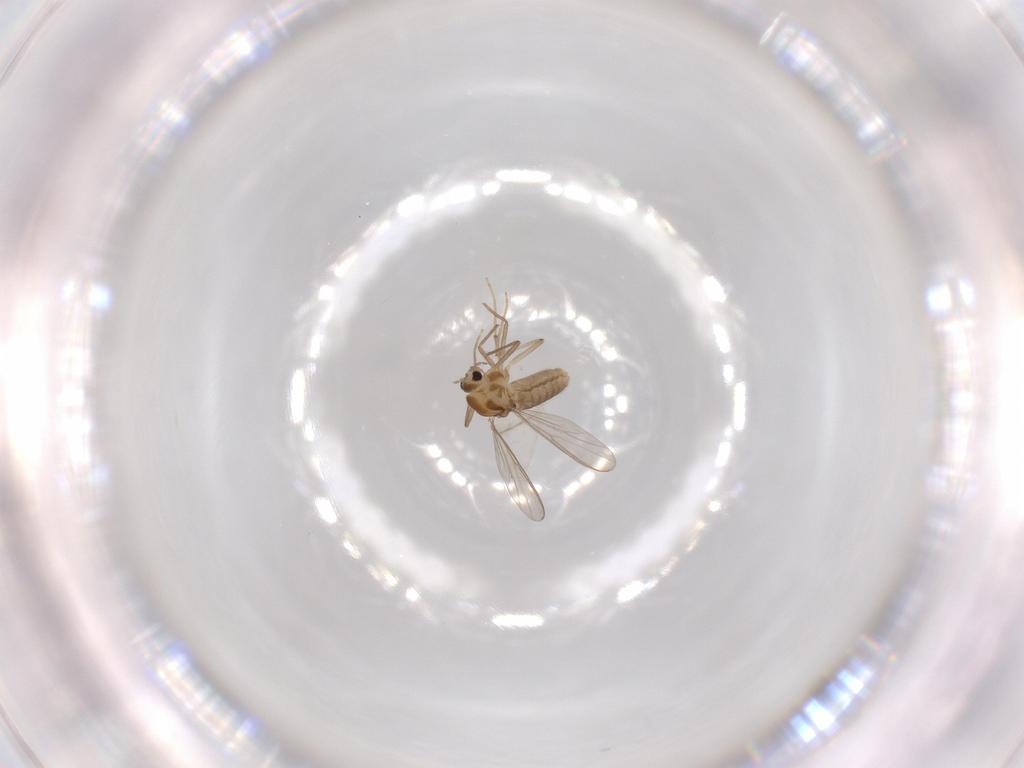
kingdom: Animalia
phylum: Arthropoda
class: Insecta
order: Diptera
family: Chironomidae
